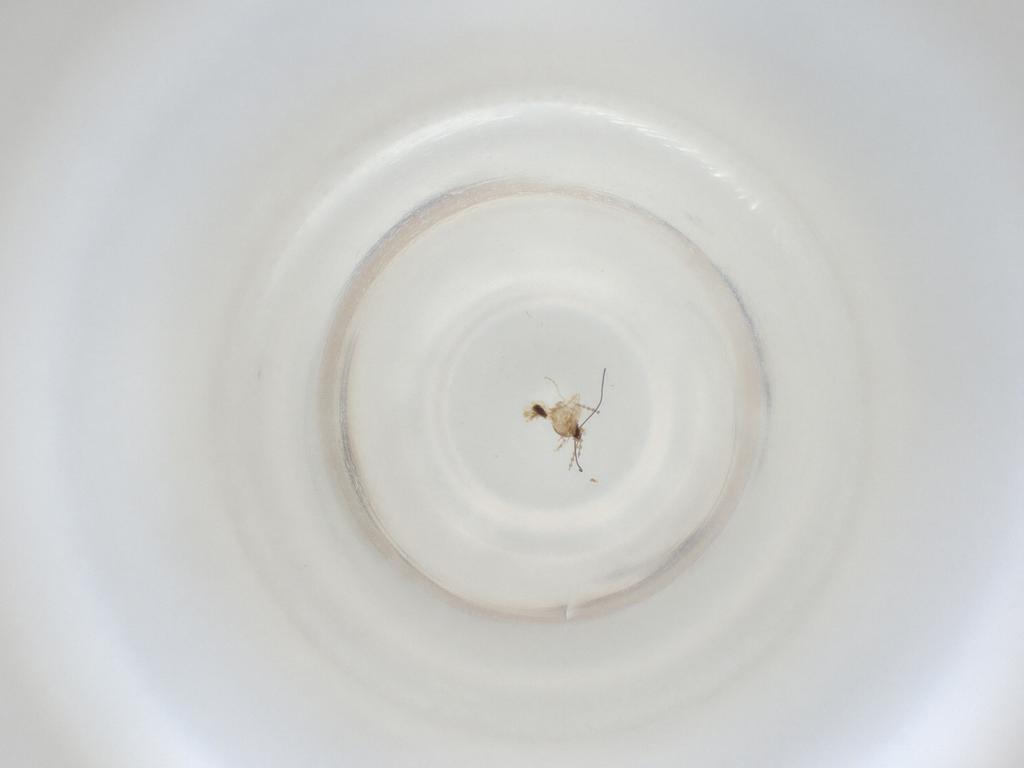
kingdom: Animalia
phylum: Arthropoda
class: Insecta
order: Diptera
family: Cecidomyiidae
